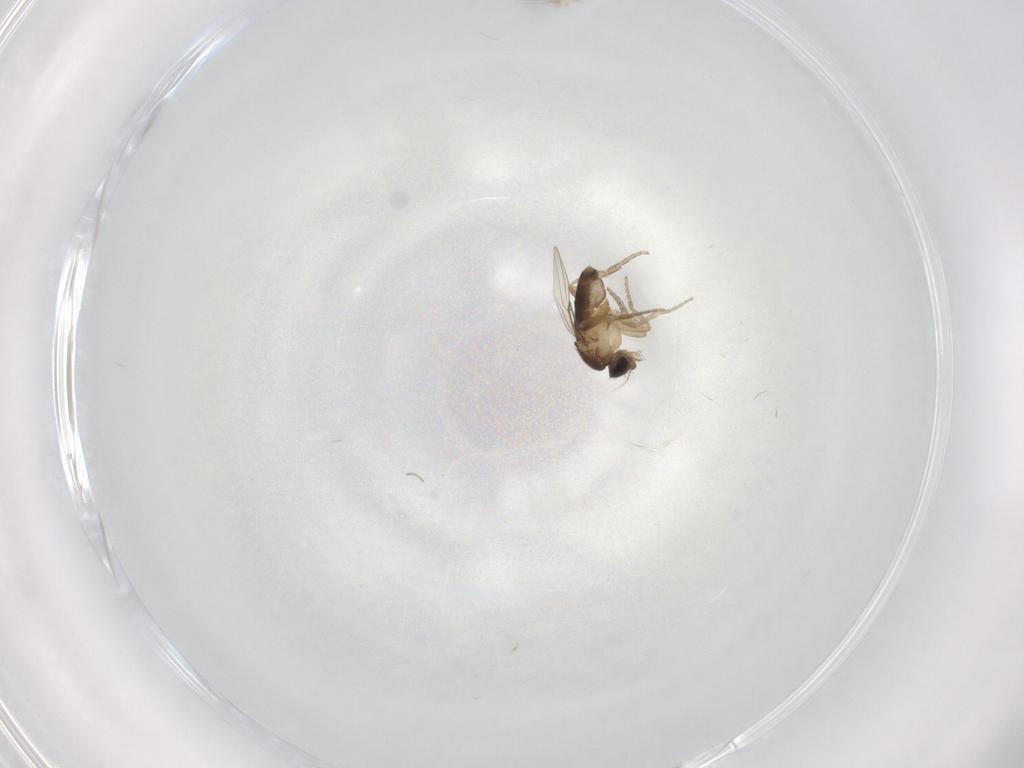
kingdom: Animalia
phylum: Arthropoda
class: Insecta
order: Diptera
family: Phoridae
